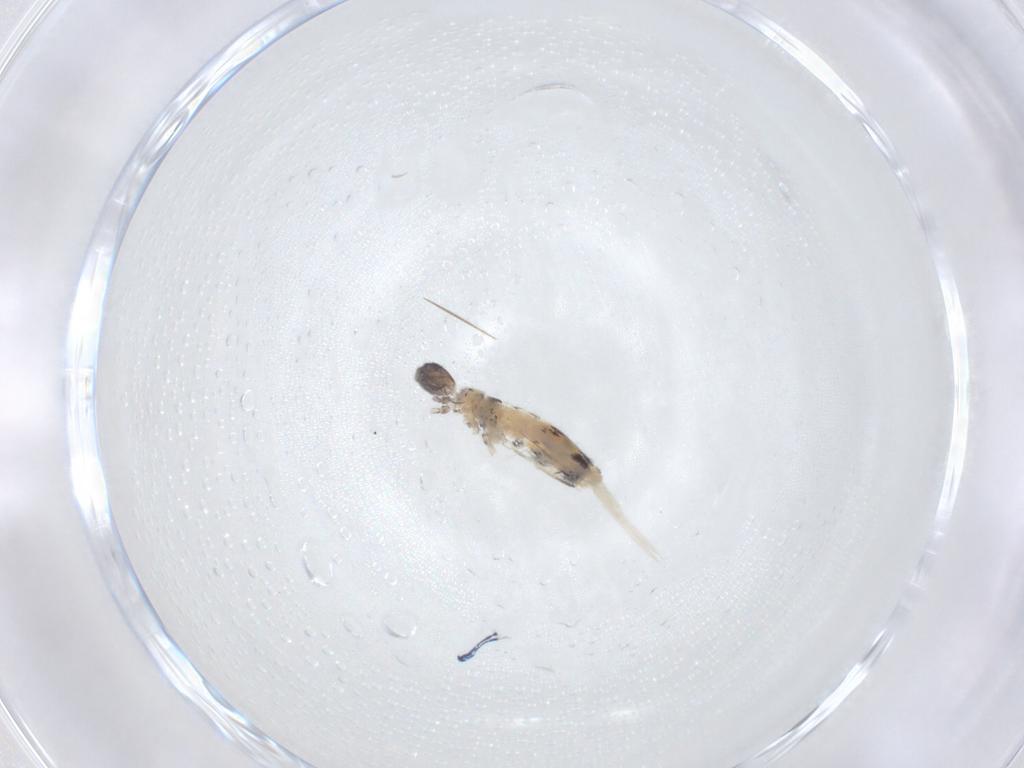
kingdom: Animalia
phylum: Arthropoda
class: Collembola
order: Entomobryomorpha
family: Entomobryidae
